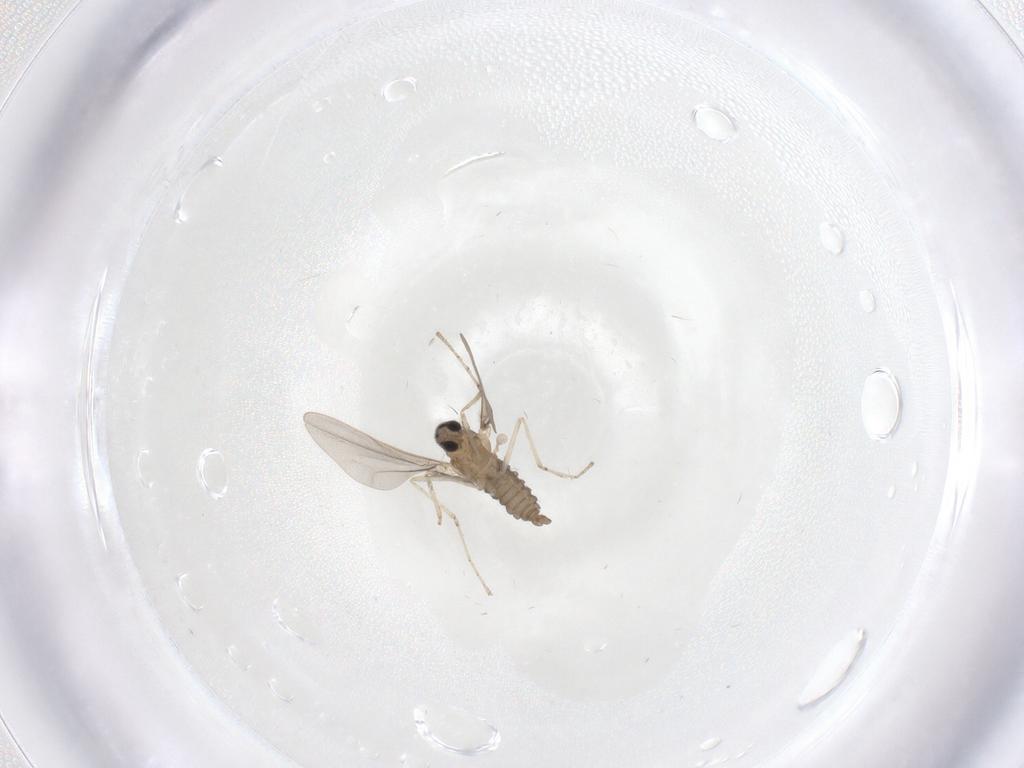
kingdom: Animalia
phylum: Arthropoda
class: Insecta
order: Diptera
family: Cecidomyiidae
